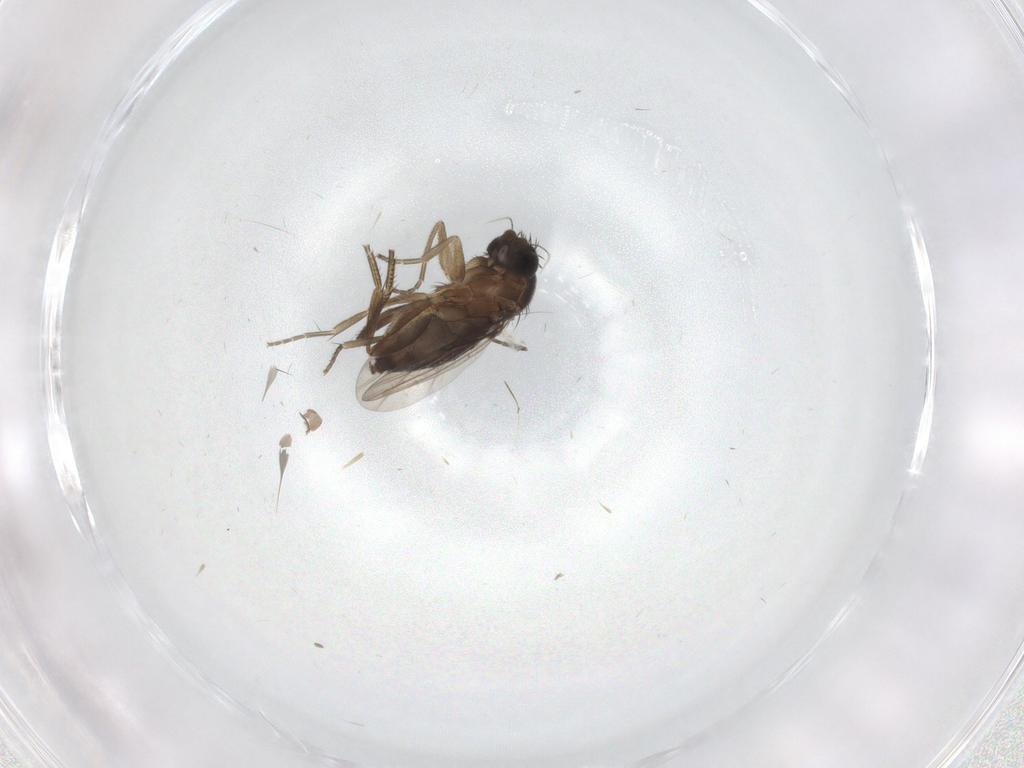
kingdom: Animalia
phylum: Arthropoda
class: Insecta
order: Diptera
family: Phoridae
